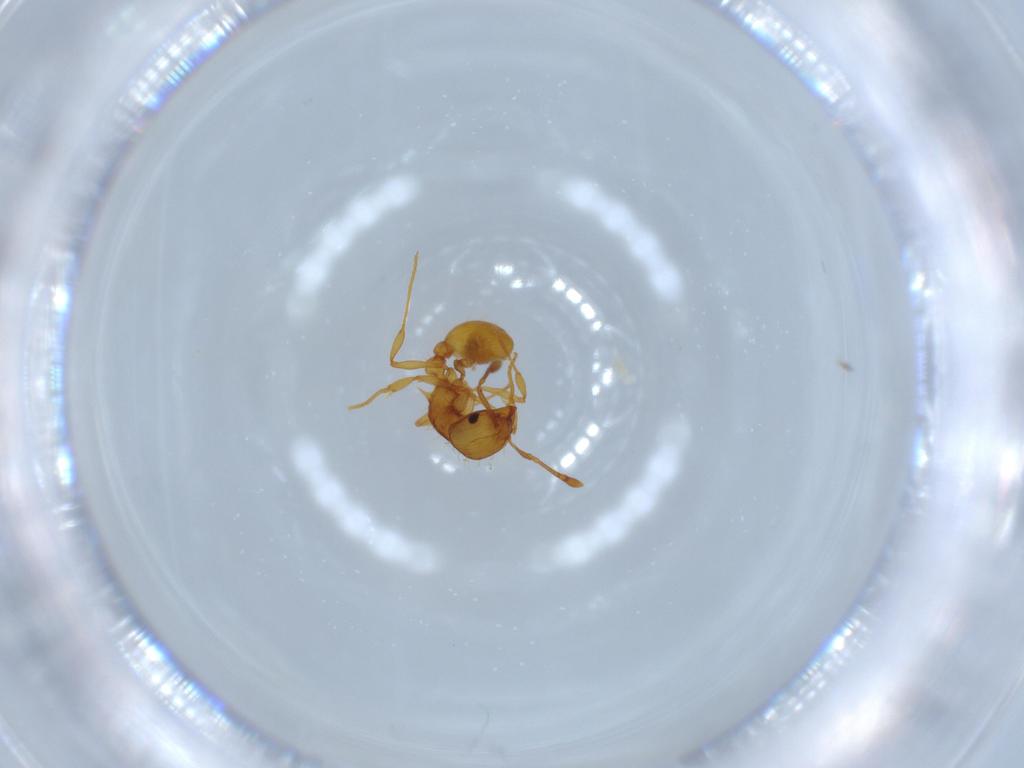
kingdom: Animalia
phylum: Arthropoda
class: Insecta
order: Hymenoptera
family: Formicidae
